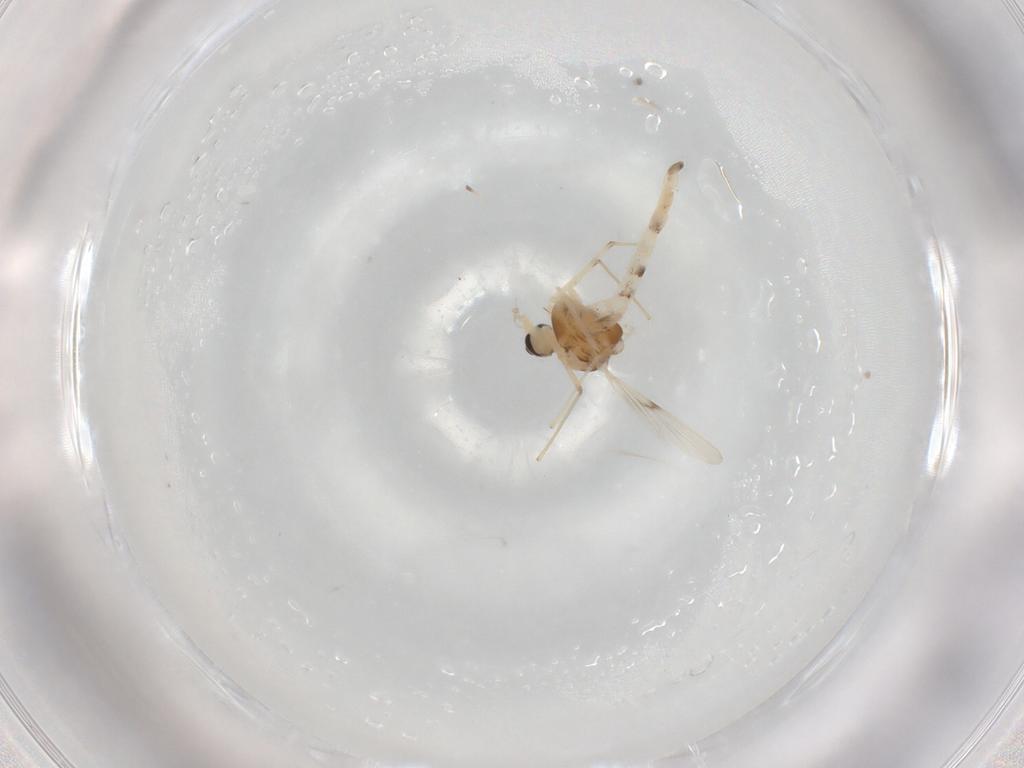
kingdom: Animalia
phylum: Arthropoda
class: Insecta
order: Diptera
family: Chironomidae
